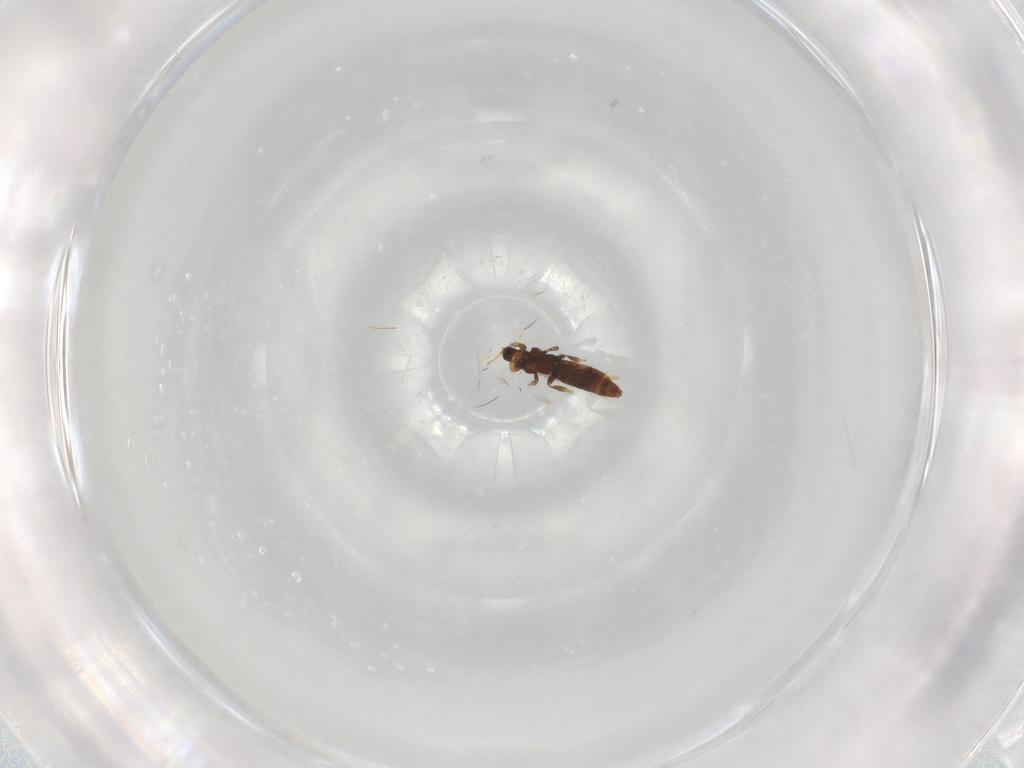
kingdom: Animalia
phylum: Arthropoda
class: Insecta
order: Thysanoptera
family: Thripidae
